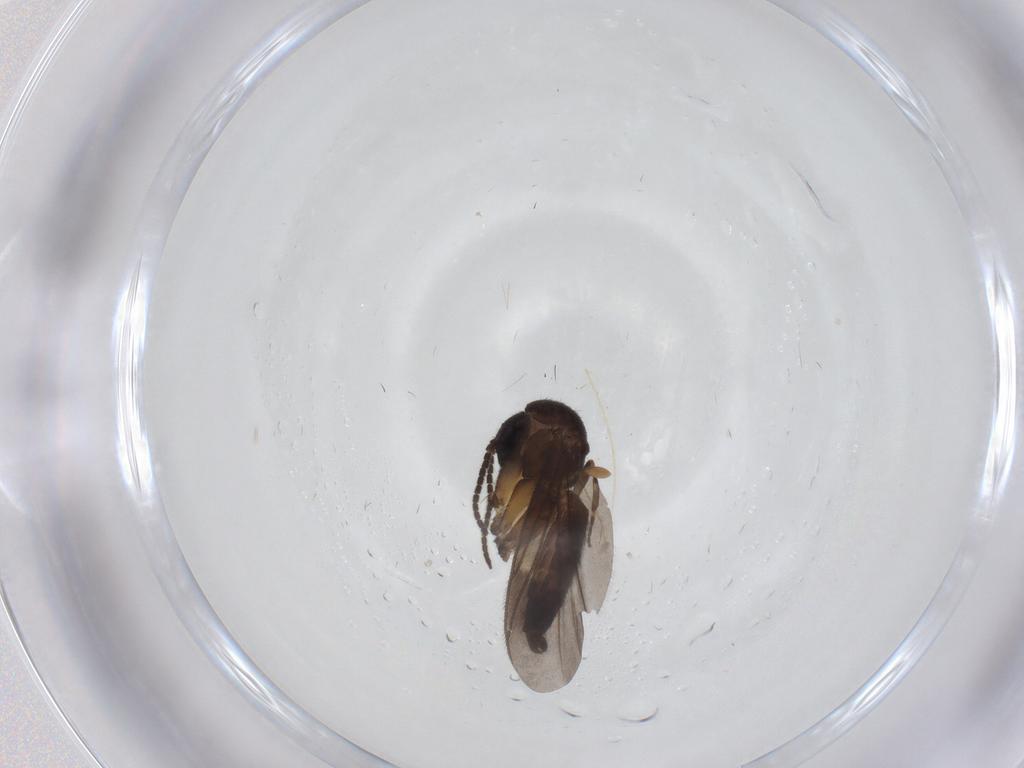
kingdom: Animalia
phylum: Arthropoda
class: Insecta
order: Diptera
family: Mycetophilidae
